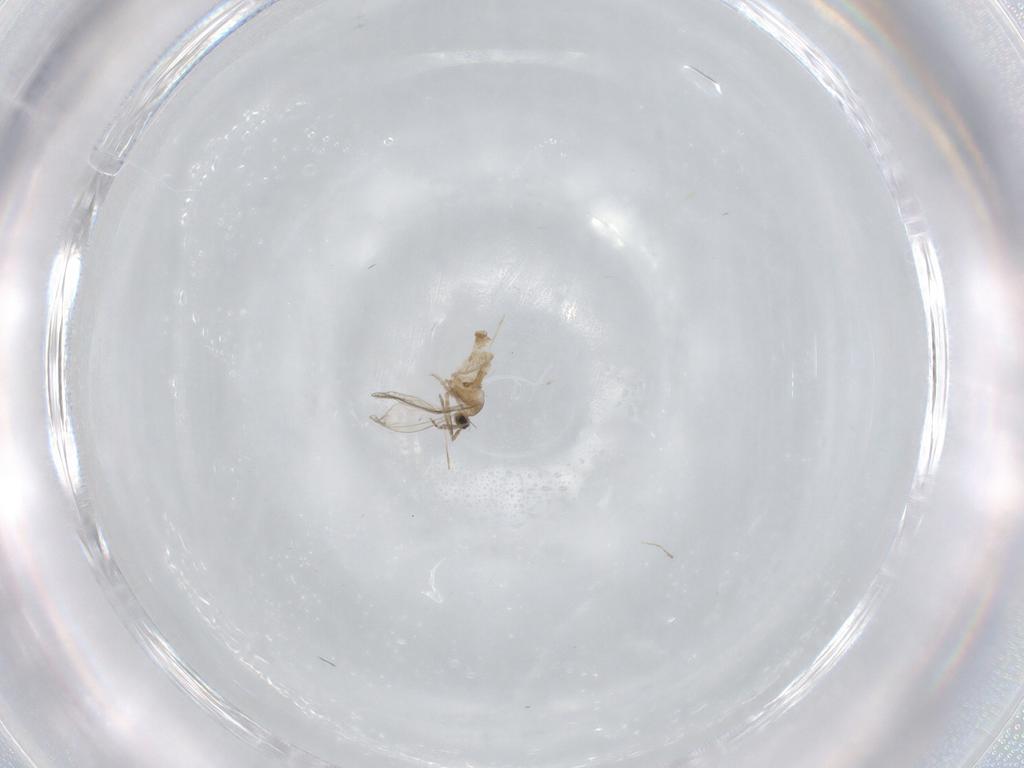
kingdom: Animalia
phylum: Arthropoda
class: Insecta
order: Diptera
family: Cecidomyiidae
